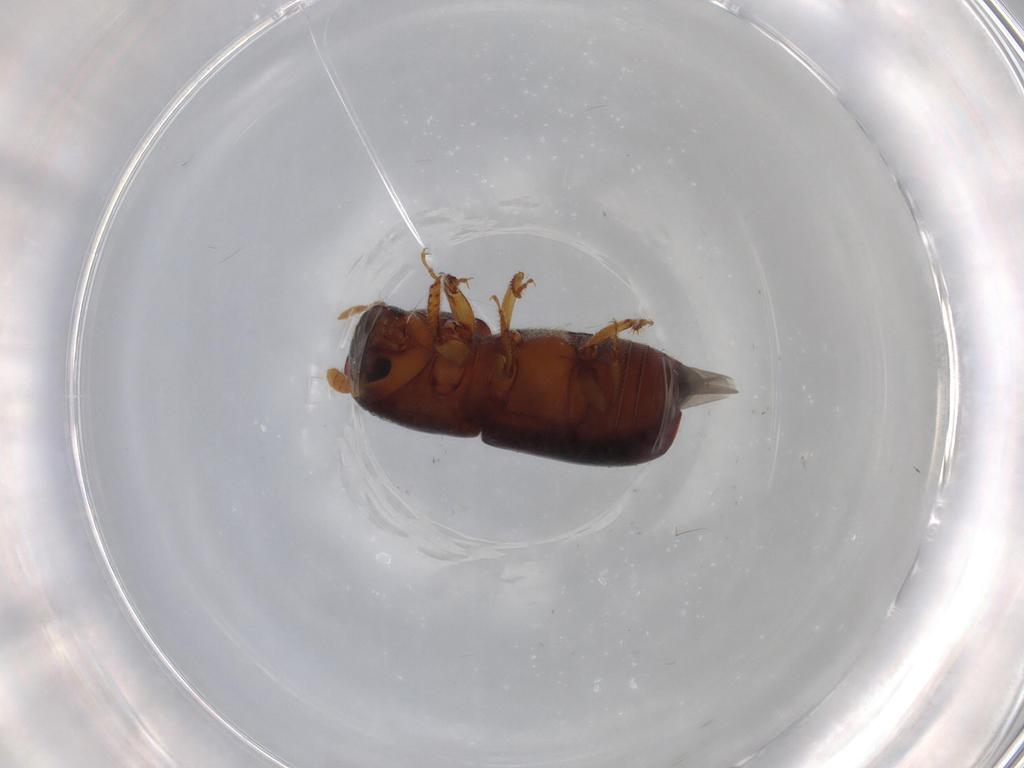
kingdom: Animalia
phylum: Arthropoda
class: Insecta
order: Coleoptera
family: Curculionidae
